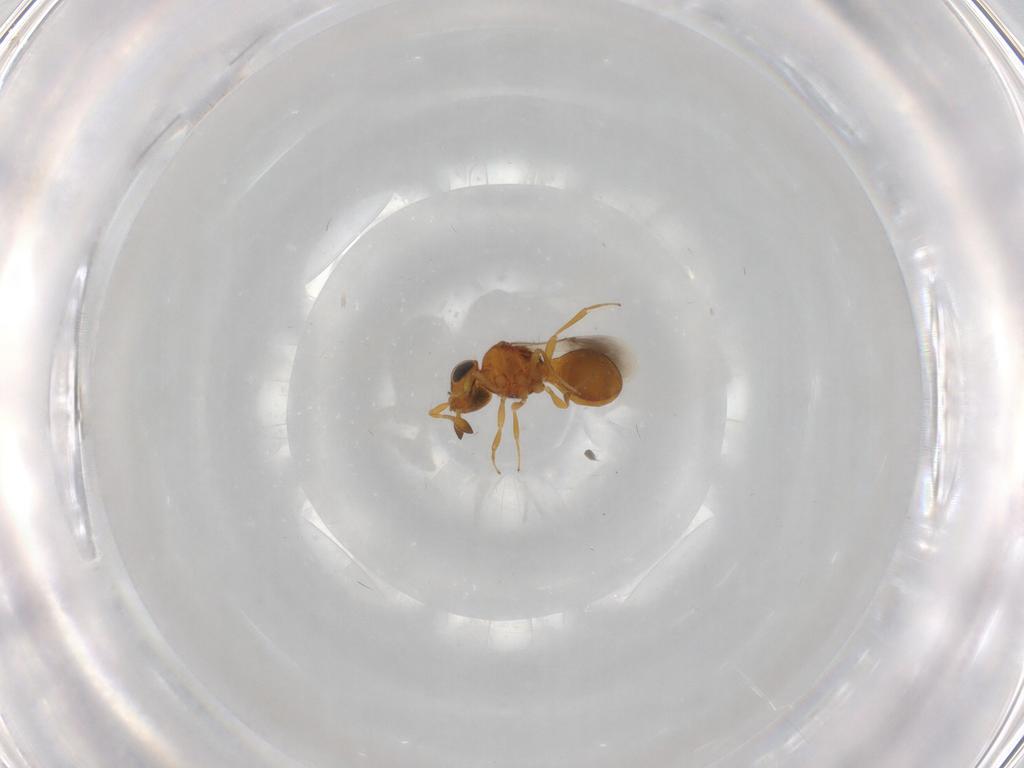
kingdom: Animalia
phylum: Arthropoda
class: Insecta
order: Hymenoptera
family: Scelionidae
